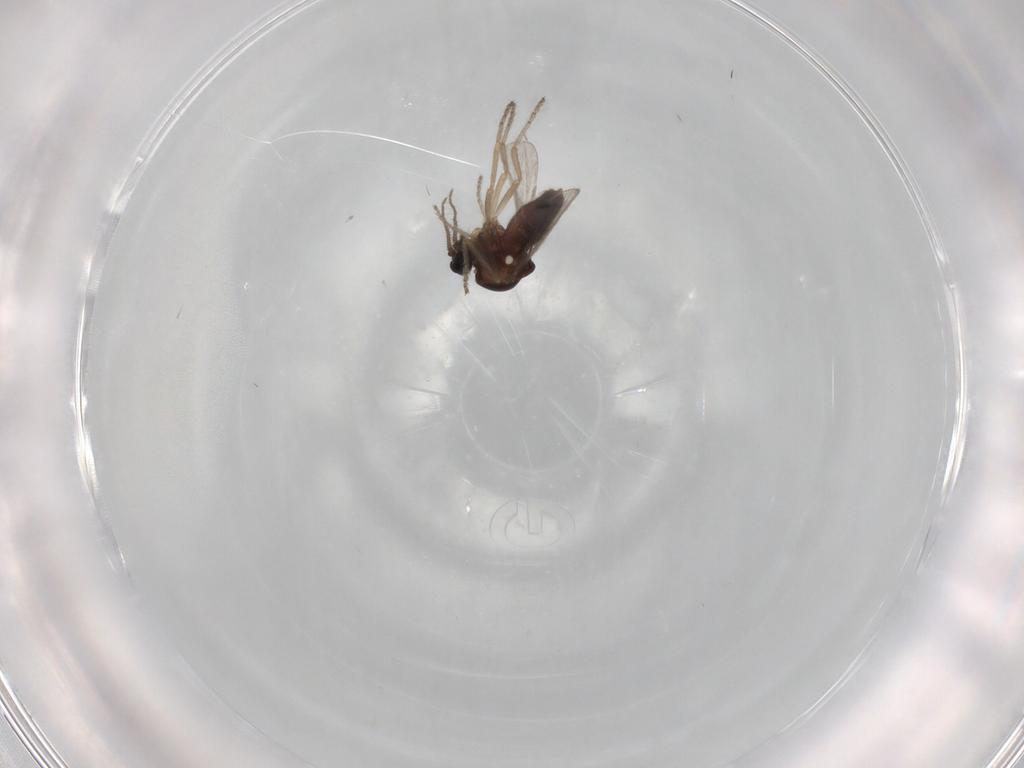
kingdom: Animalia
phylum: Arthropoda
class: Insecta
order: Diptera
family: Ceratopogonidae
